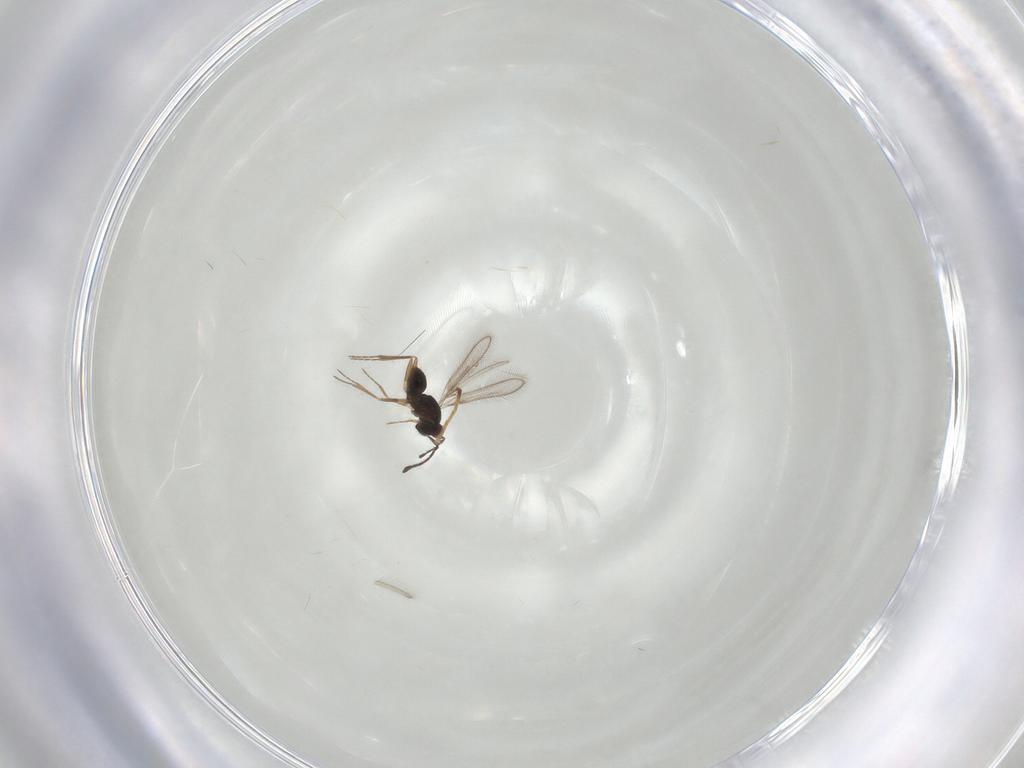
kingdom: Animalia
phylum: Arthropoda
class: Insecta
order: Hymenoptera
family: Pteromalidae
